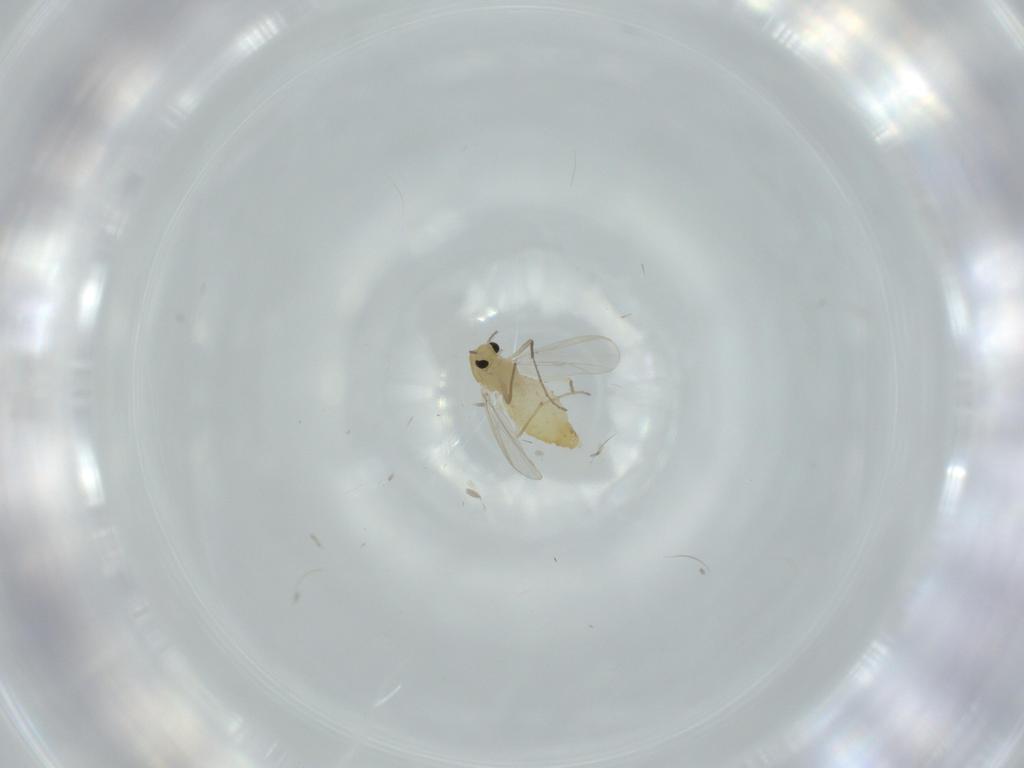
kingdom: Animalia
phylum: Arthropoda
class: Insecta
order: Diptera
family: Chironomidae
